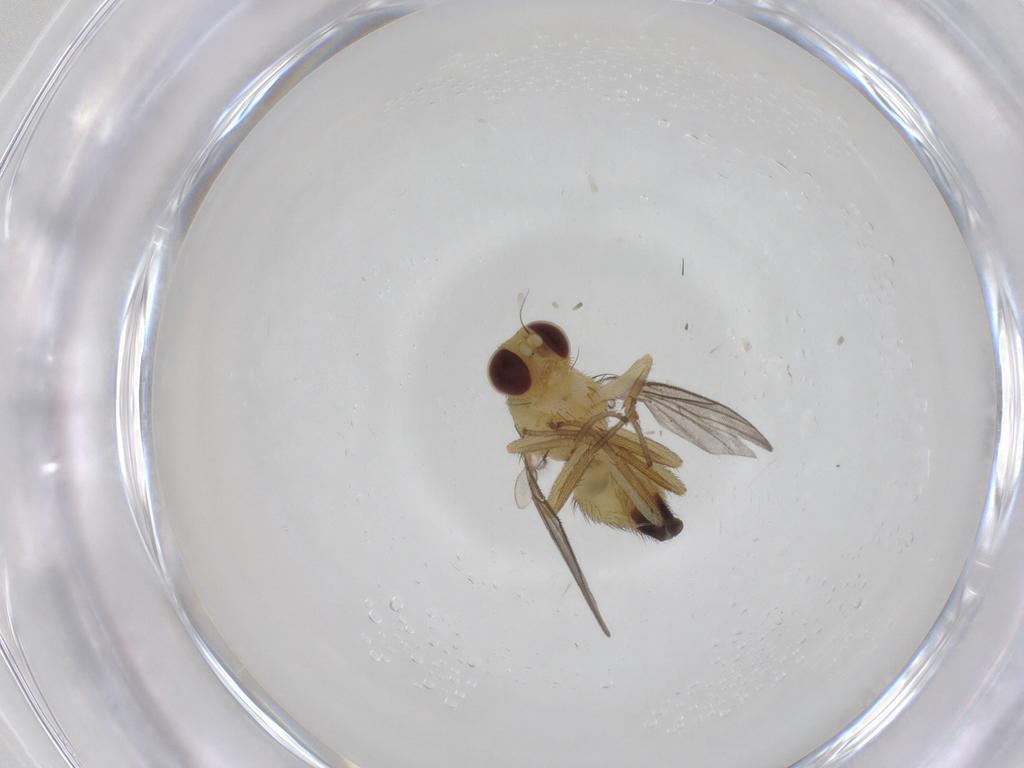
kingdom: Animalia
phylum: Arthropoda
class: Insecta
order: Diptera
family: Agromyzidae
